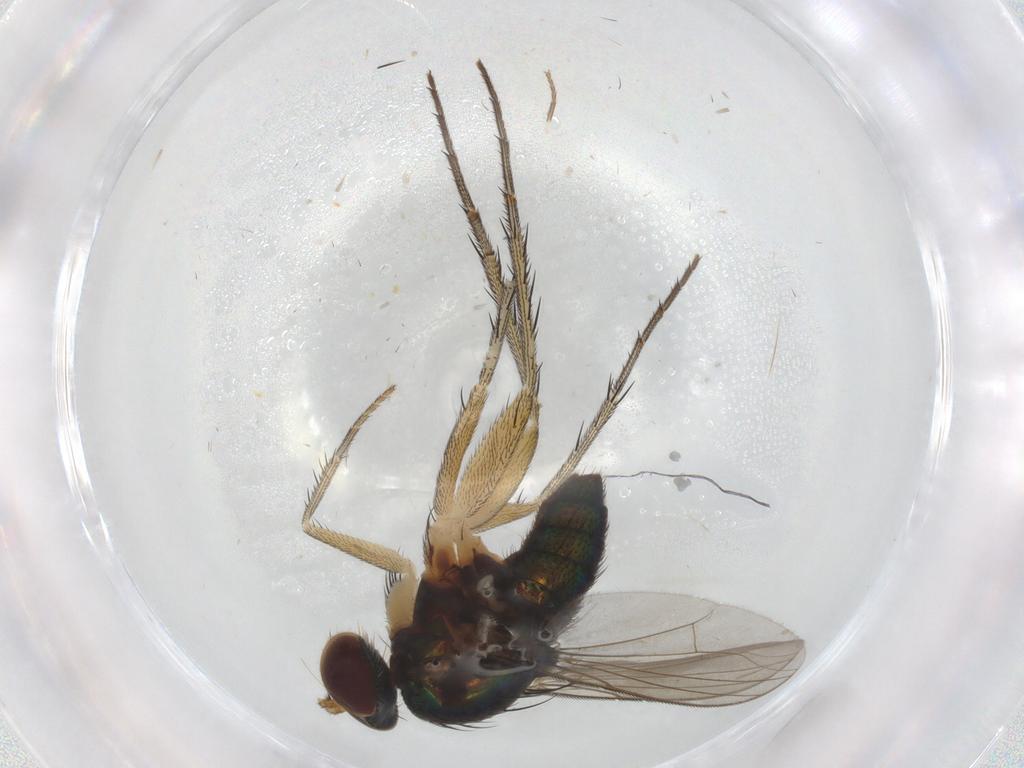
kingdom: Animalia
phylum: Arthropoda
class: Insecta
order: Diptera
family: Dolichopodidae
